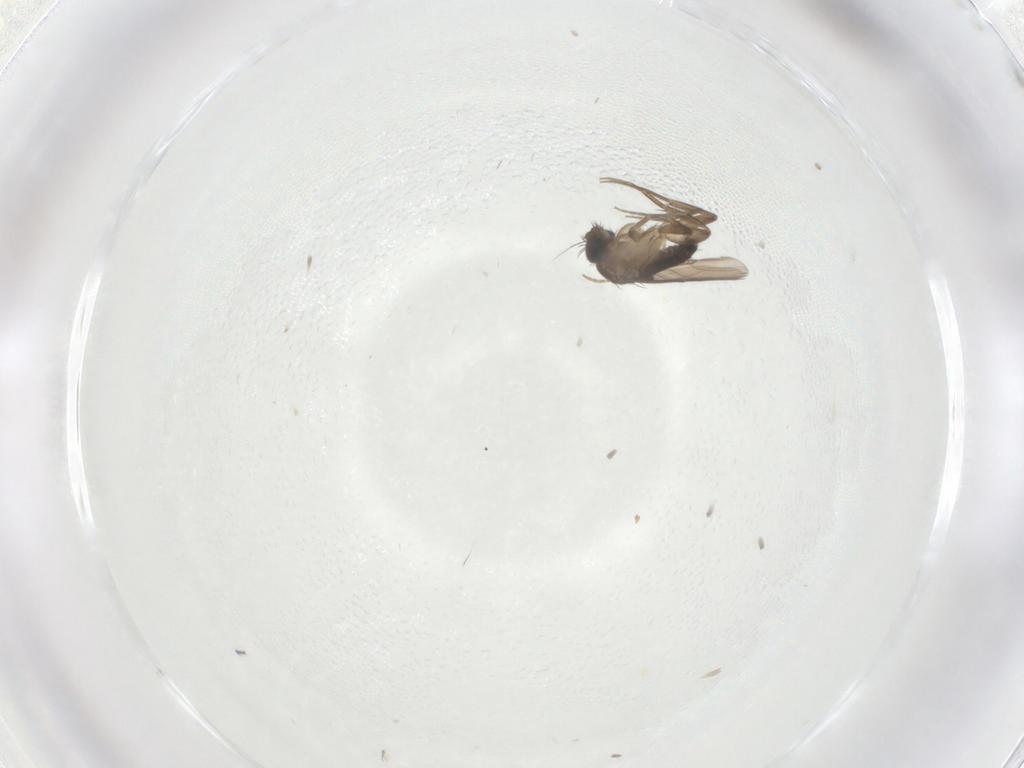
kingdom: Animalia
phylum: Arthropoda
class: Insecta
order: Diptera
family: Phoridae
